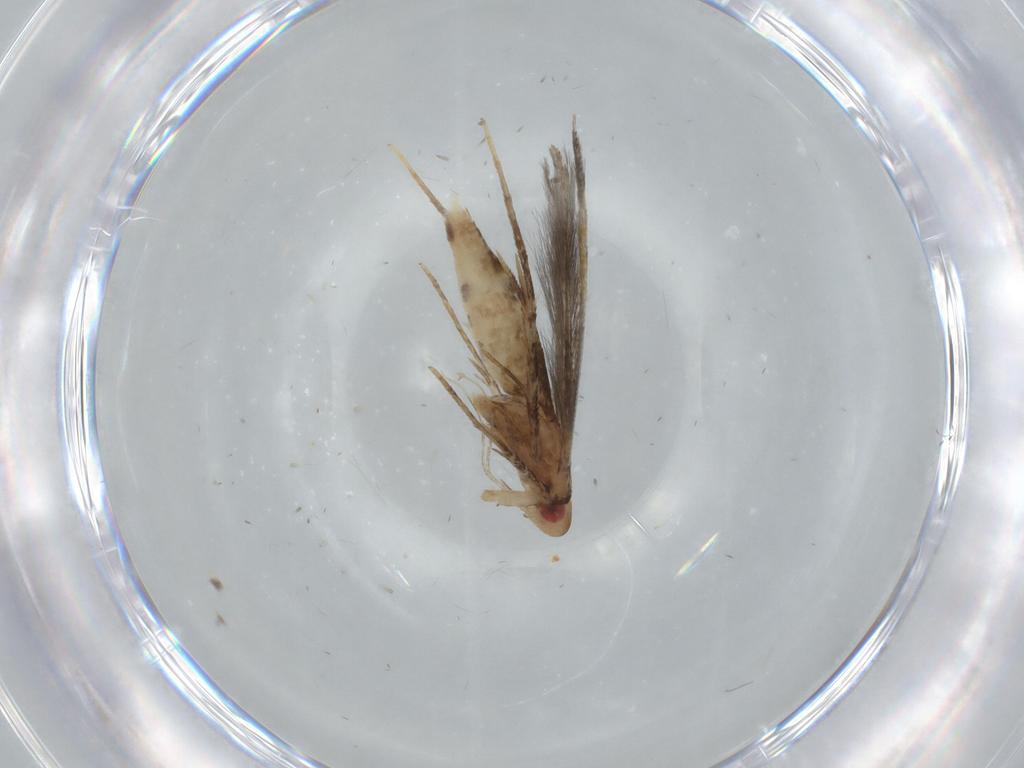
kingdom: Animalia
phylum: Arthropoda
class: Insecta
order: Lepidoptera
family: Cosmopterigidae
